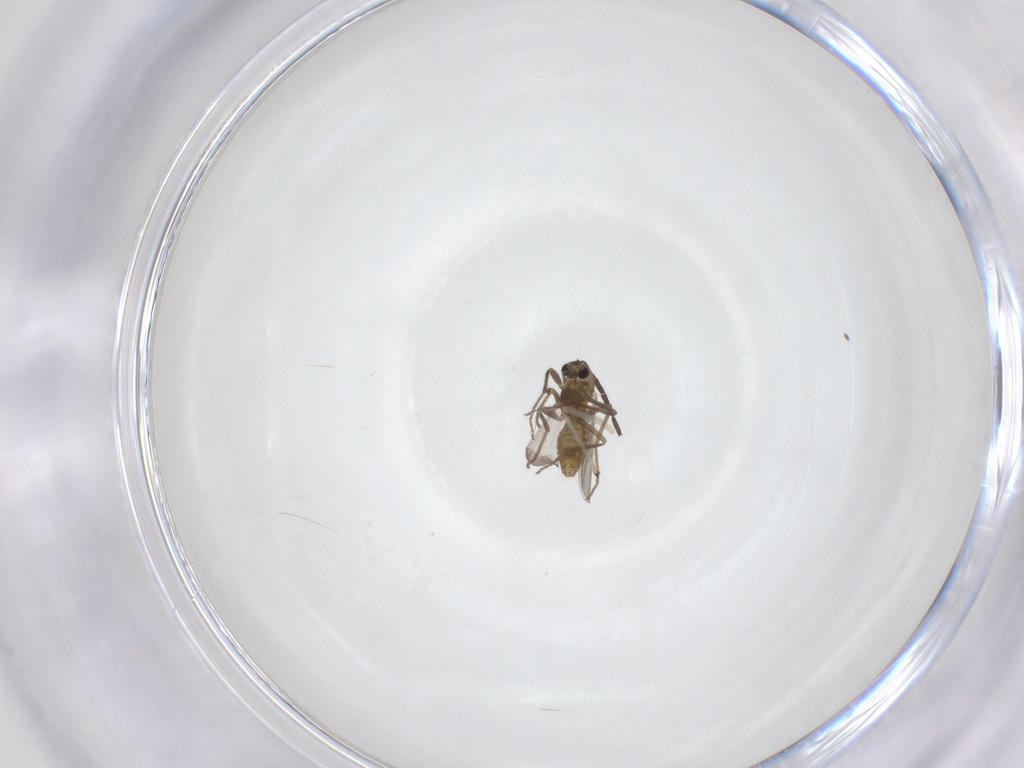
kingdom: Animalia
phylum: Arthropoda
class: Insecta
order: Diptera
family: Chironomidae
